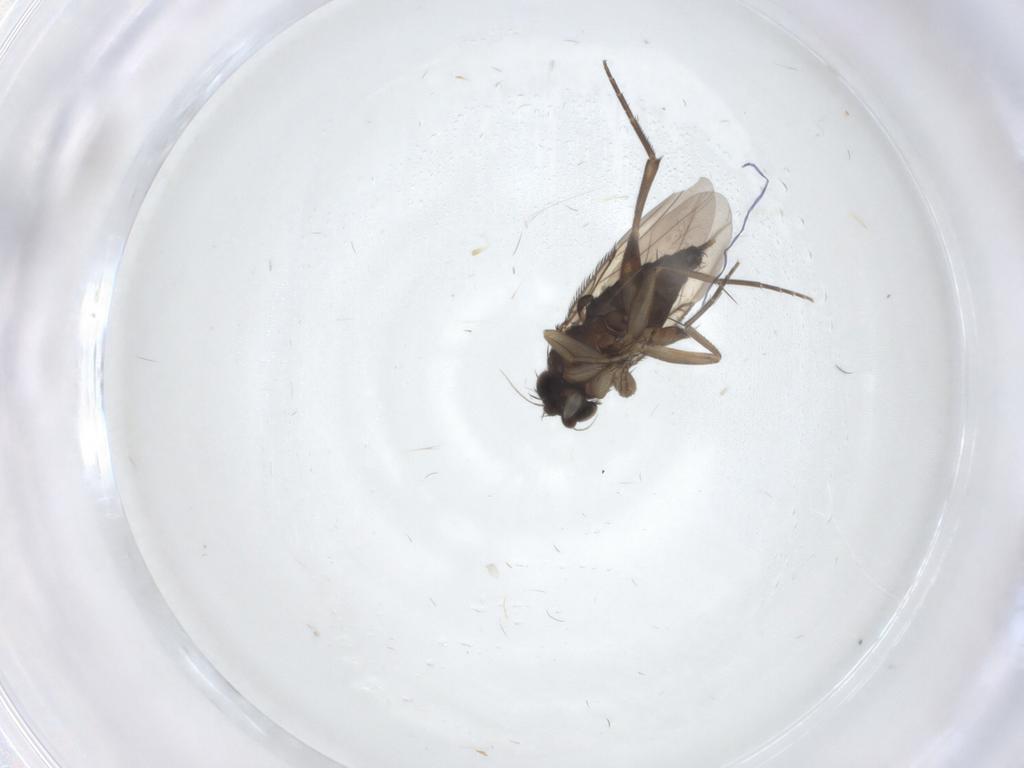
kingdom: Animalia
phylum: Arthropoda
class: Insecta
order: Diptera
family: Phoridae
